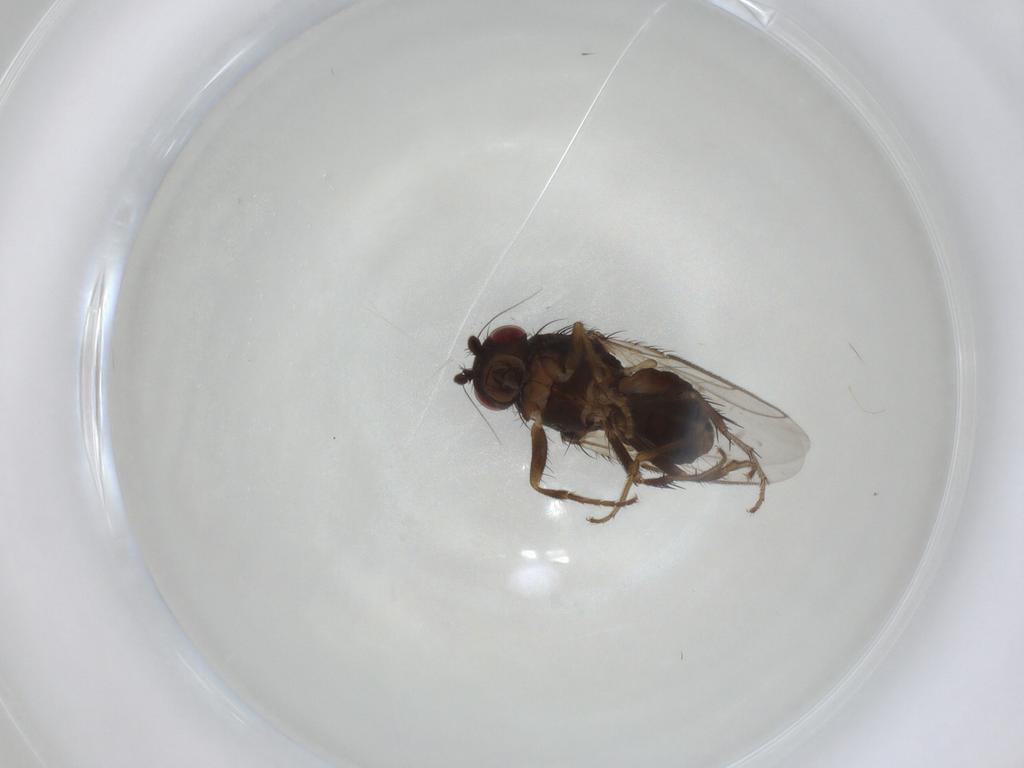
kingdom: Animalia
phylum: Arthropoda
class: Insecta
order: Diptera
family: Sphaeroceridae
